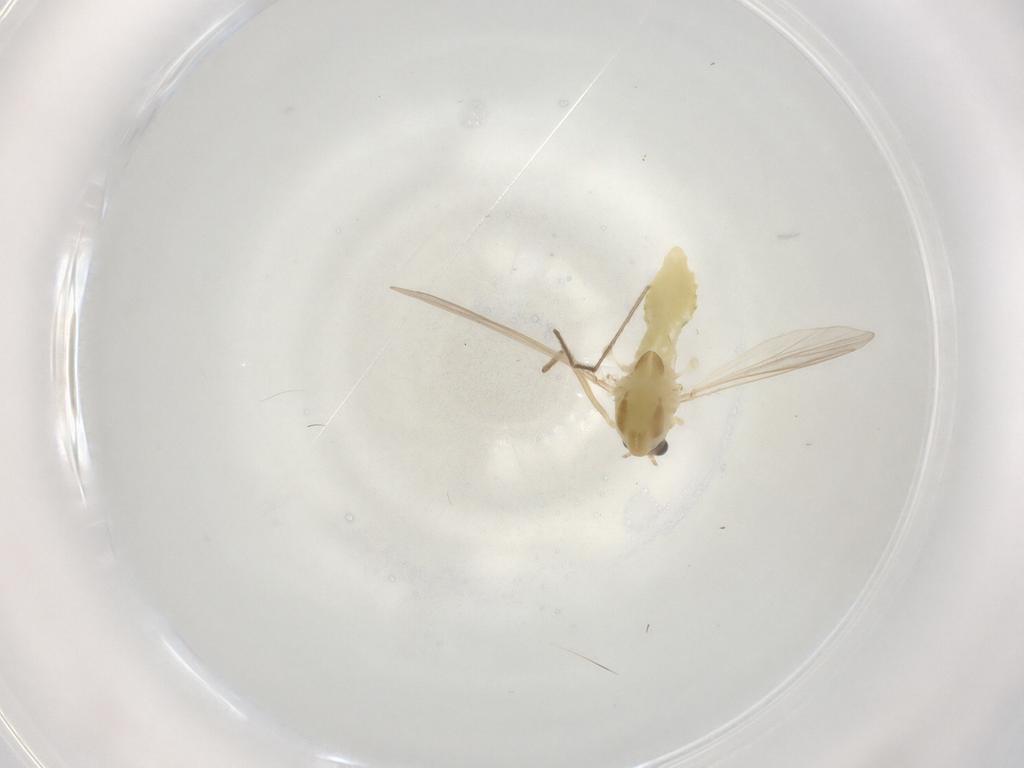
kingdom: Animalia
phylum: Arthropoda
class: Insecta
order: Diptera
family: Chironomidae
